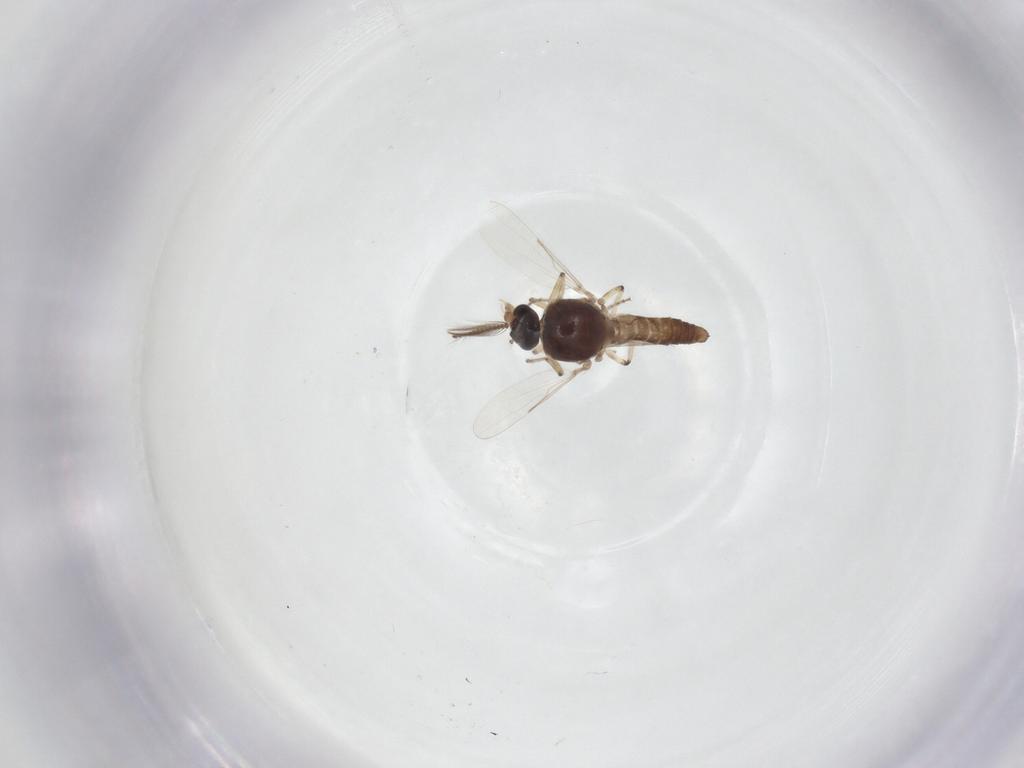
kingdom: Animalia
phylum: Arthropoda
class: Insecta
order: Diptera
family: Ceratopogonidae
